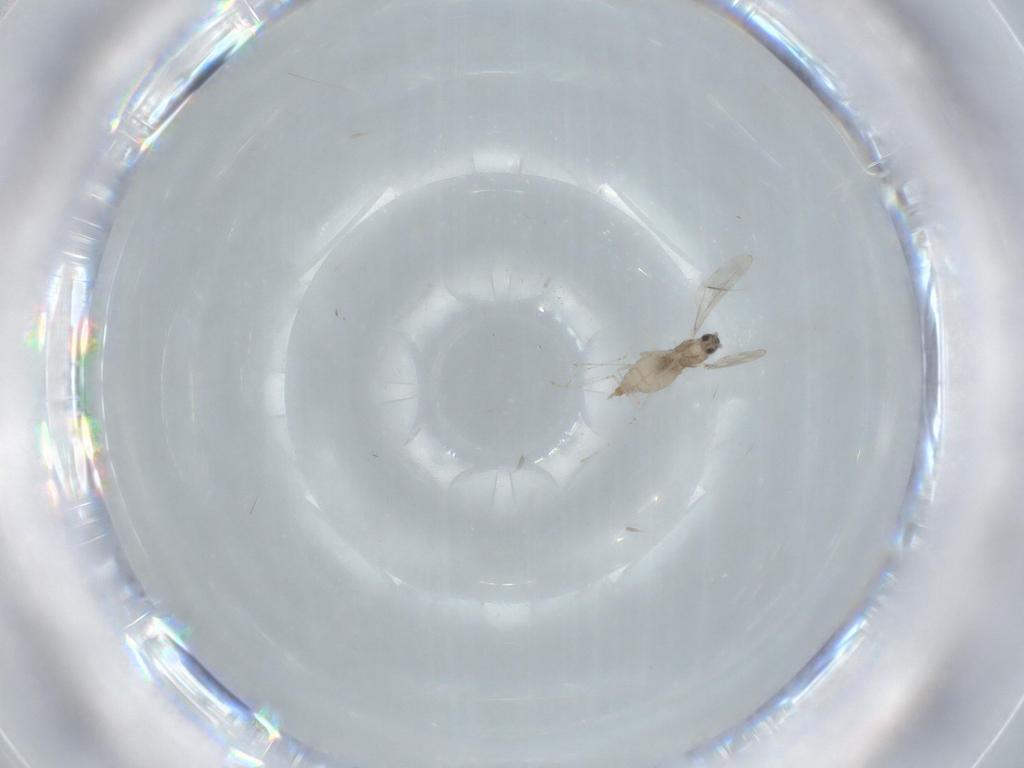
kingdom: Animalia
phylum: Arthropoda
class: Insecta
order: Diptera
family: Cecidomyiidae
